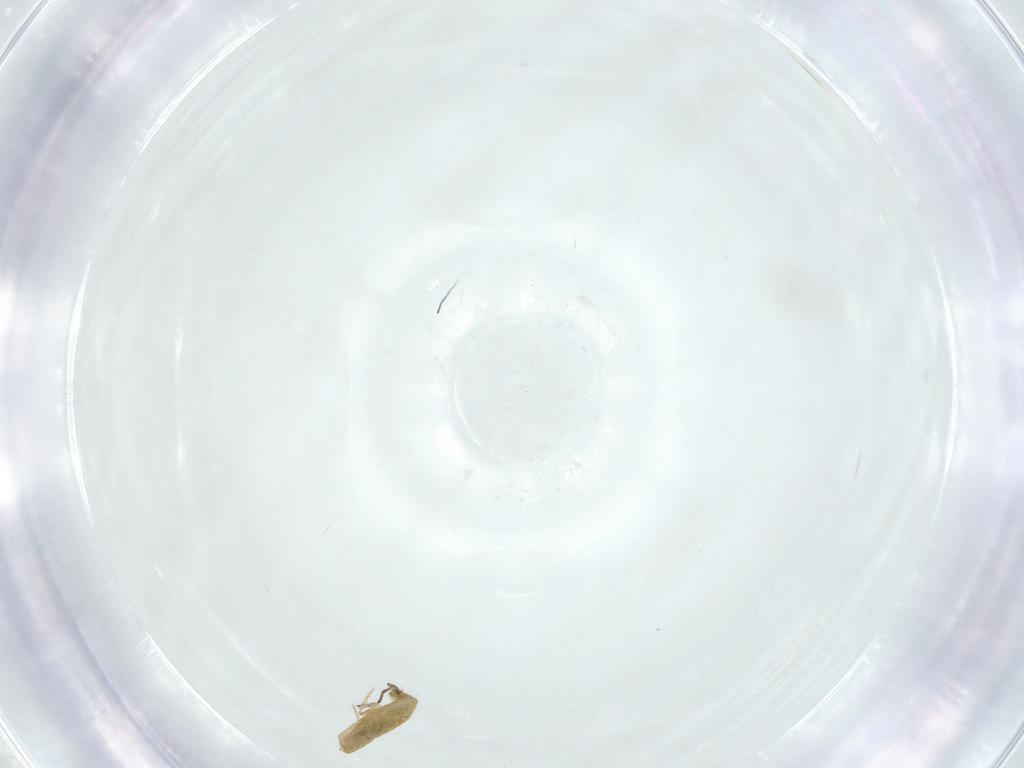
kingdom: Animalia
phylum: Arthropoda
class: Collembola
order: Entomobryomorpha
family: Entomobryidae
